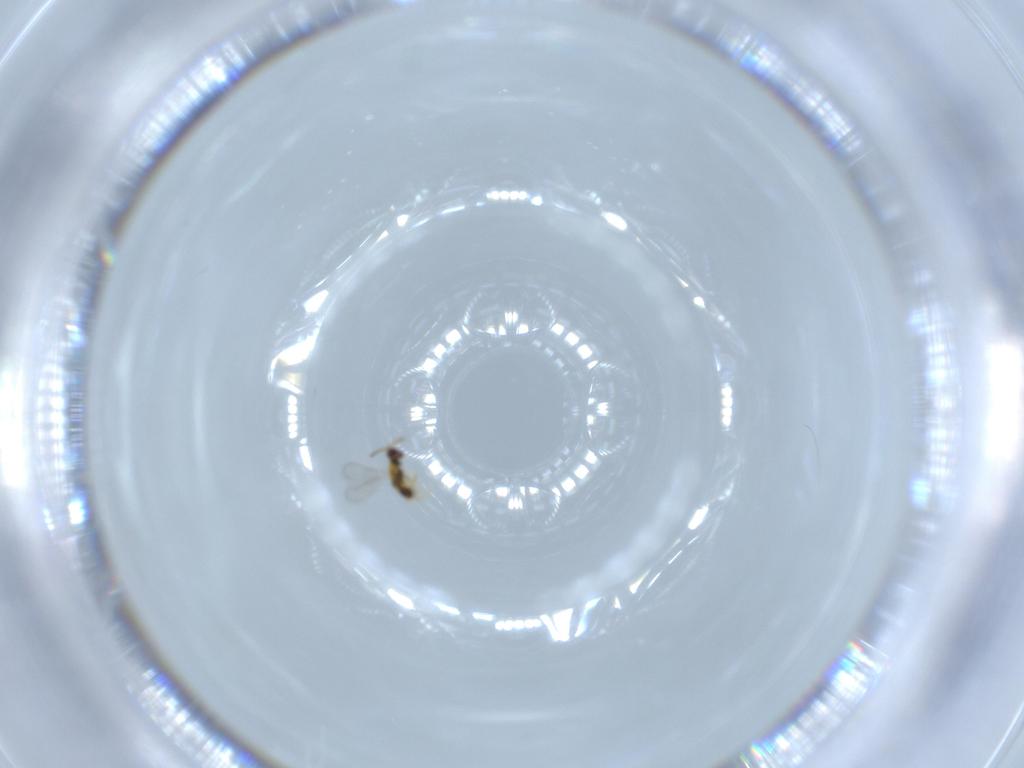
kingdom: Animalia
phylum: Arthropoda
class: Insecta
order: Hymenoptera
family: Aphelinidae
